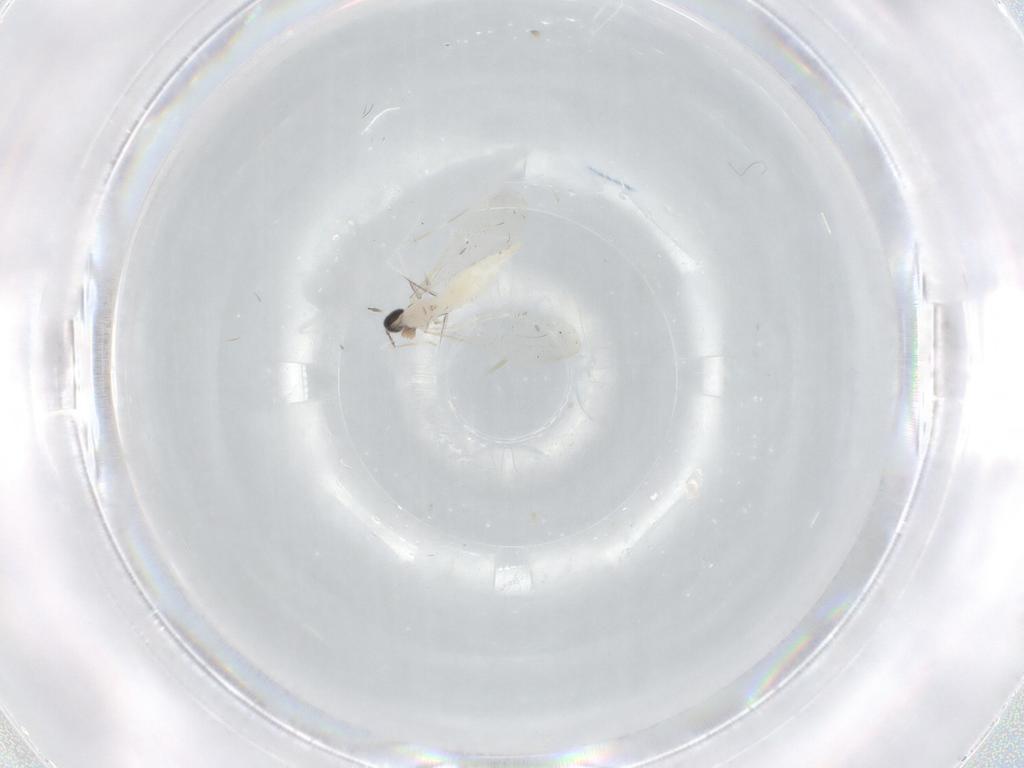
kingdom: Animalia
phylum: Arthropoda
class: Insecta
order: Diptera
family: Cecidomyiidae
